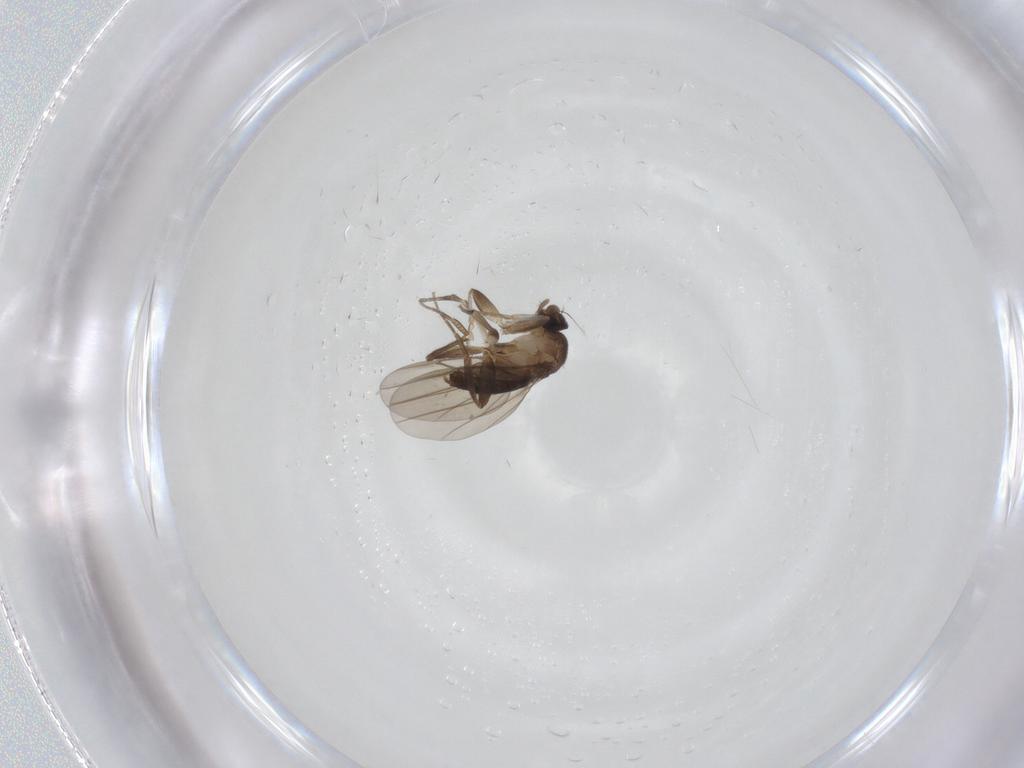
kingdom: Animalia
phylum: Arthropoda
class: Insecta
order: Diptera
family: Phoridae
